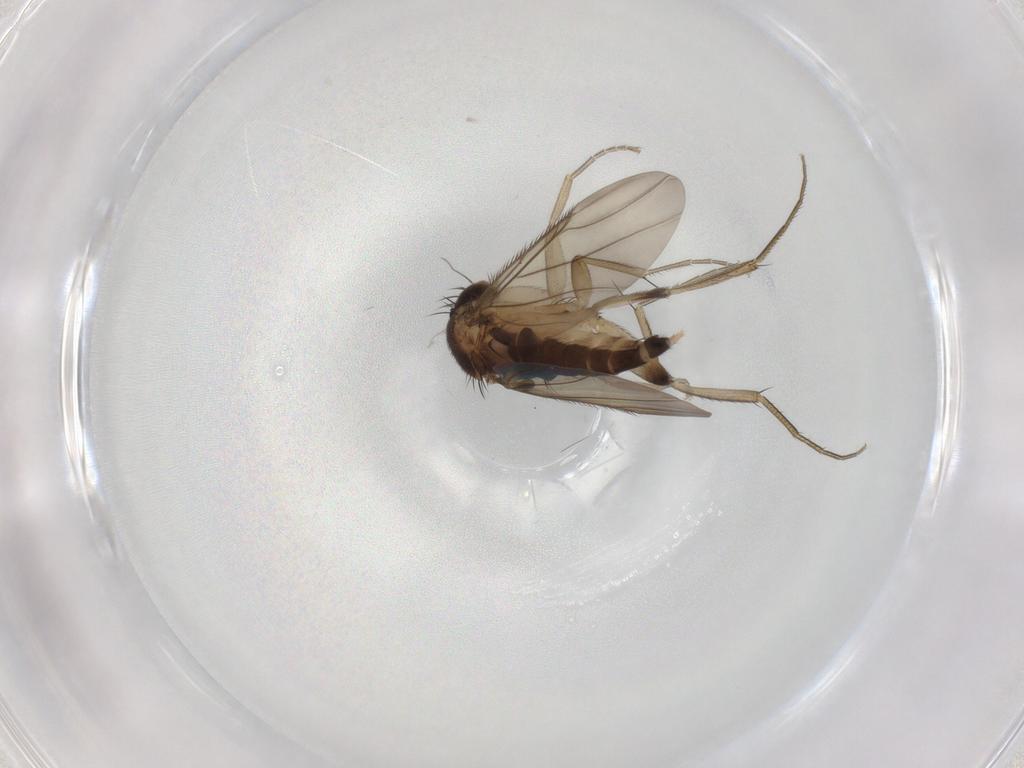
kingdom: Animalia
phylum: Arthropoda
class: Insecta
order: Diptera
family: Phoridae
